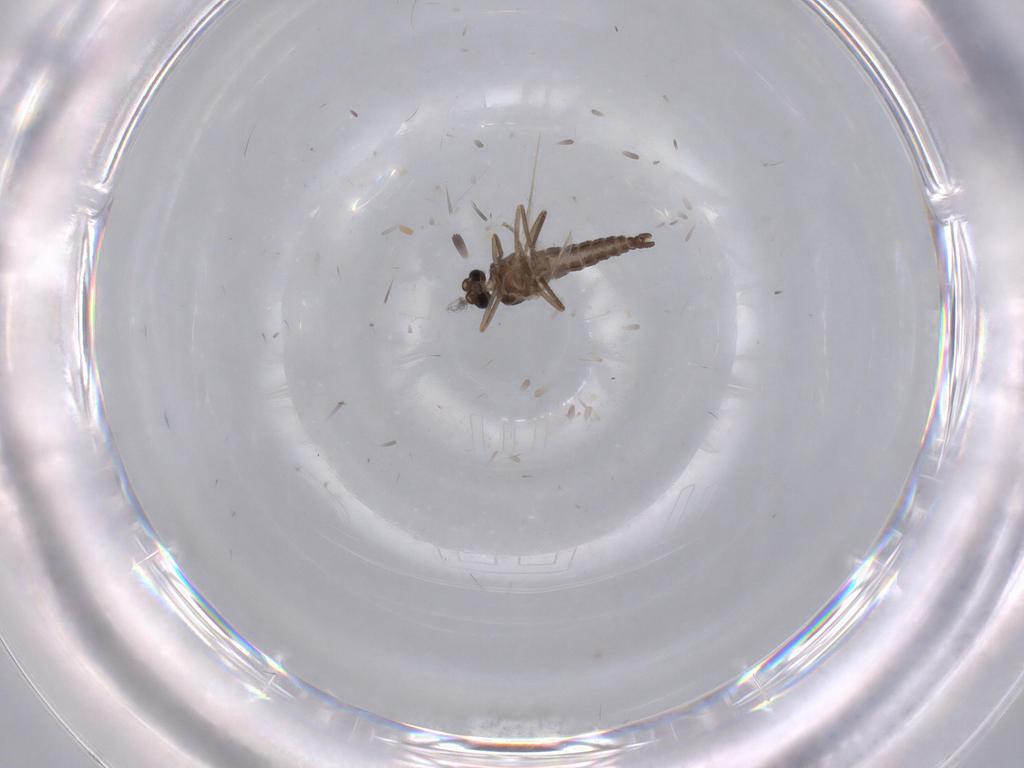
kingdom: Animalia
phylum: Arthropoda
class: Insecta
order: Diptera
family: Ceratopogonidae
